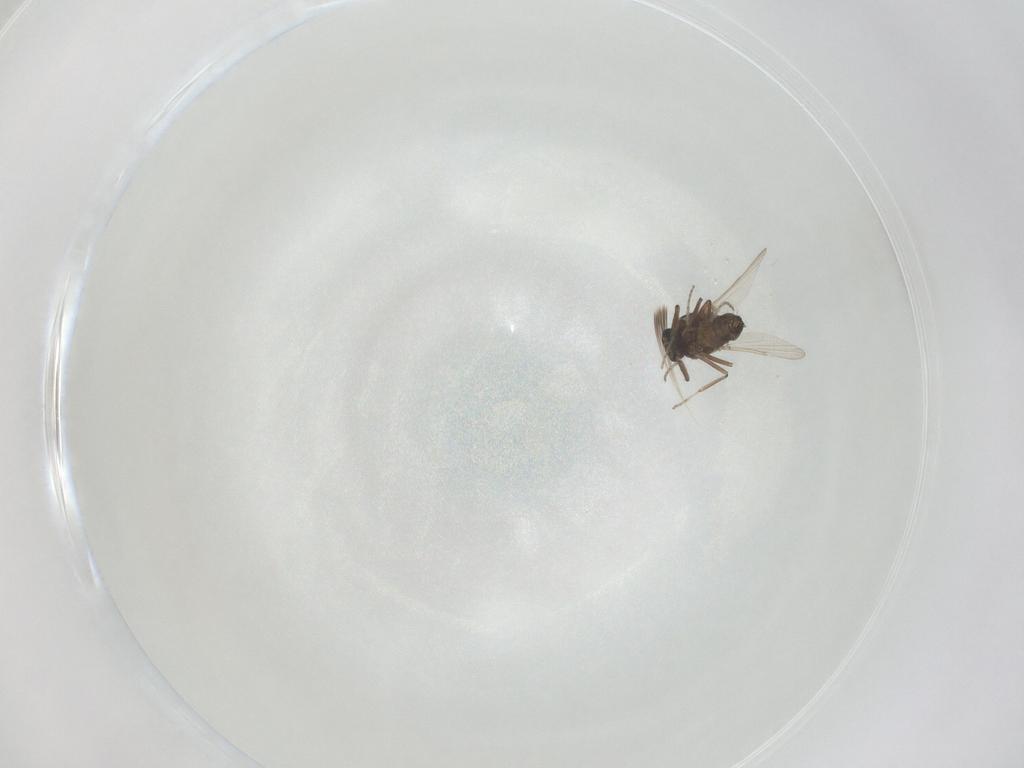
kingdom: Animalia
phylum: Arthropoda
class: Insecta
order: Diptera
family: Ceratopogonidae
